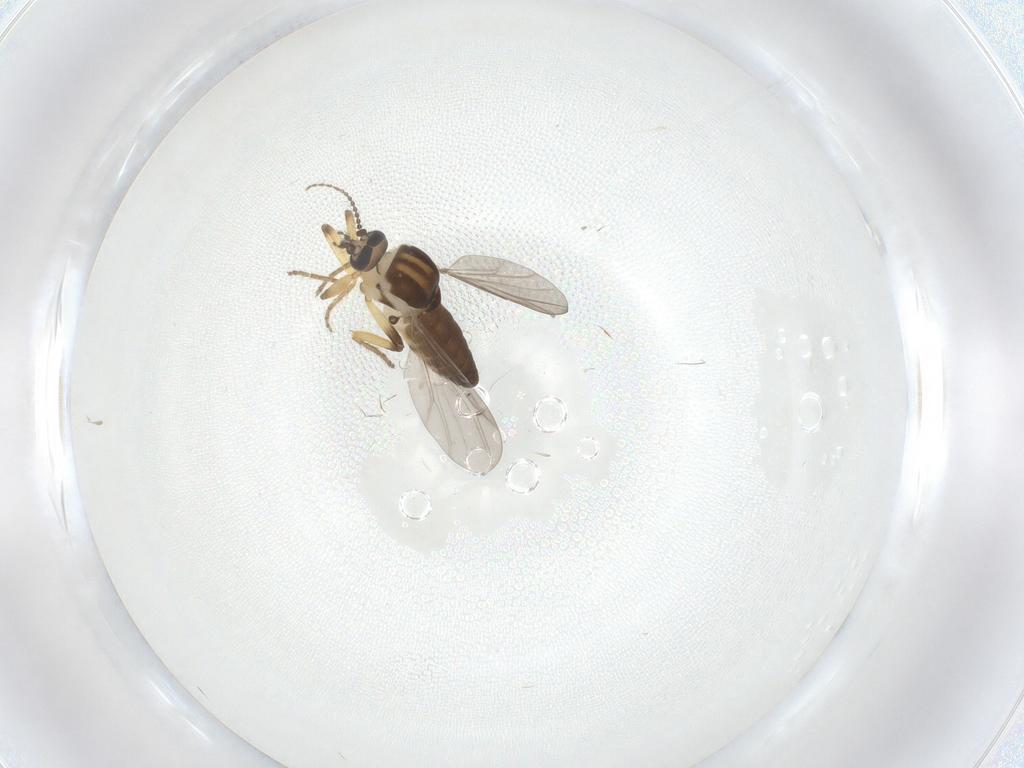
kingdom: Animalia
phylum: Arthropoda
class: Insecta
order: Diptera
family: Ceratopogonidae
